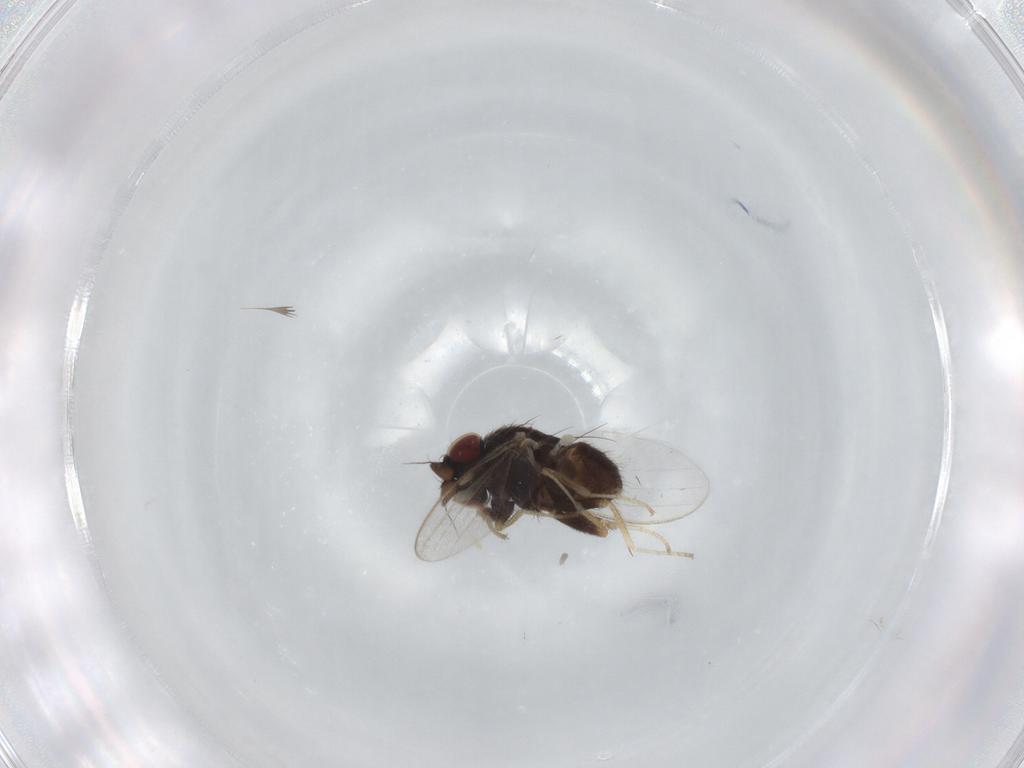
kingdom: Animalia
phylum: Arthropoda
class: Insecta
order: Diptera
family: Milichiidae
